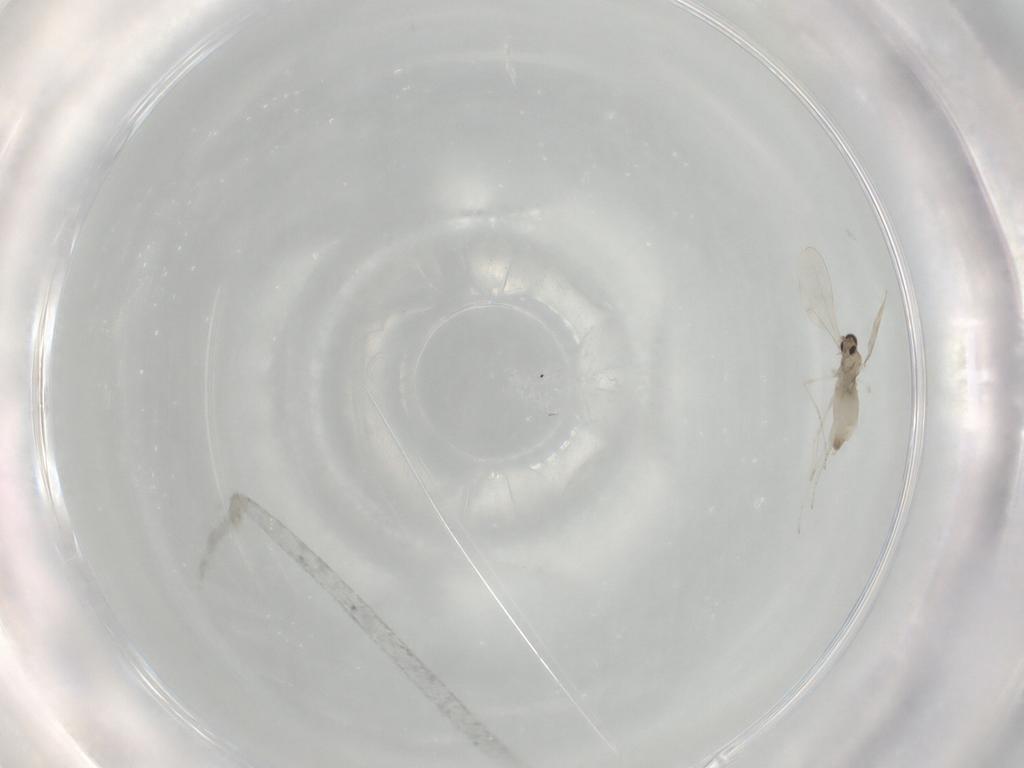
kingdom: Animalia
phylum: Arthropoda
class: Insecta
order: Diptera
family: Cecidomyiidae
